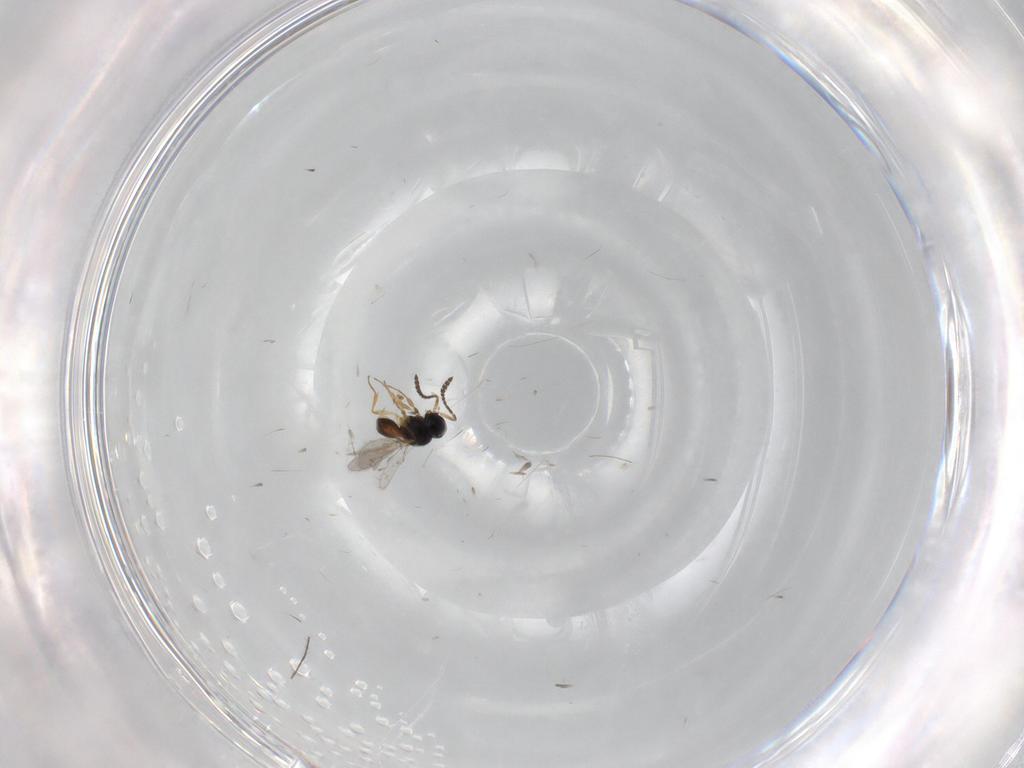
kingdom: Animalia
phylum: Arthropoda
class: Insecta
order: Hymenoptera
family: Scelionidae
